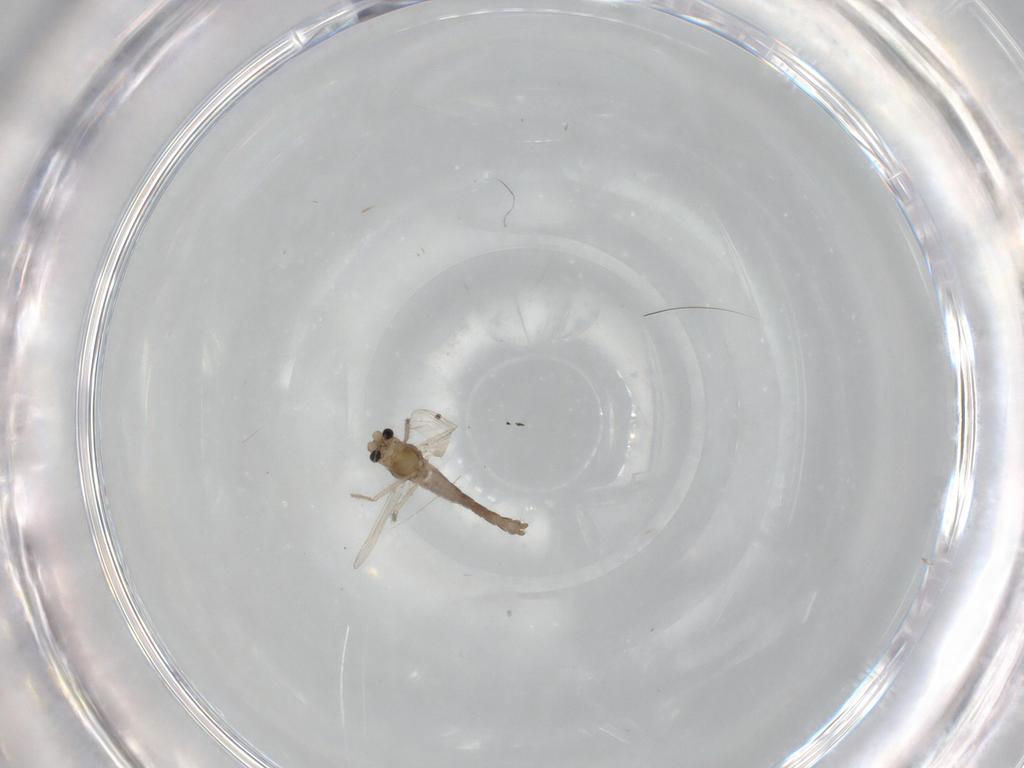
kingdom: Animalia
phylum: Arthropoda
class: Insecta
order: Diptera
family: Chironomidae
